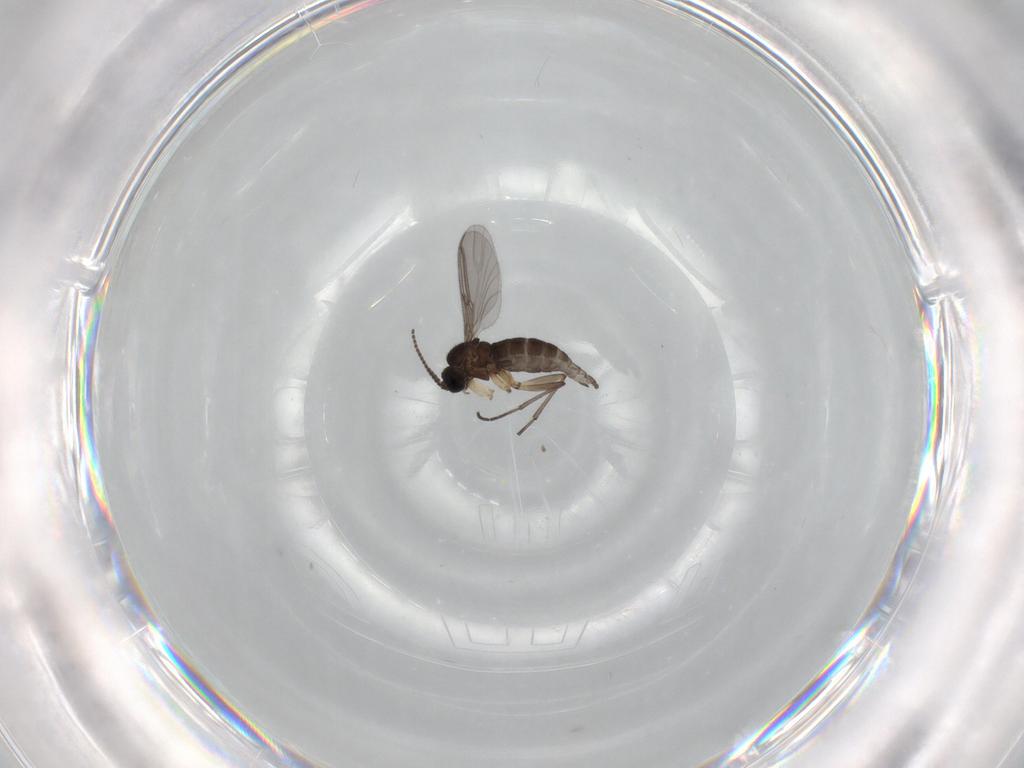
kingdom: Animalia
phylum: Arthropoda
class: Insecta
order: Diptera
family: Sciaridae
